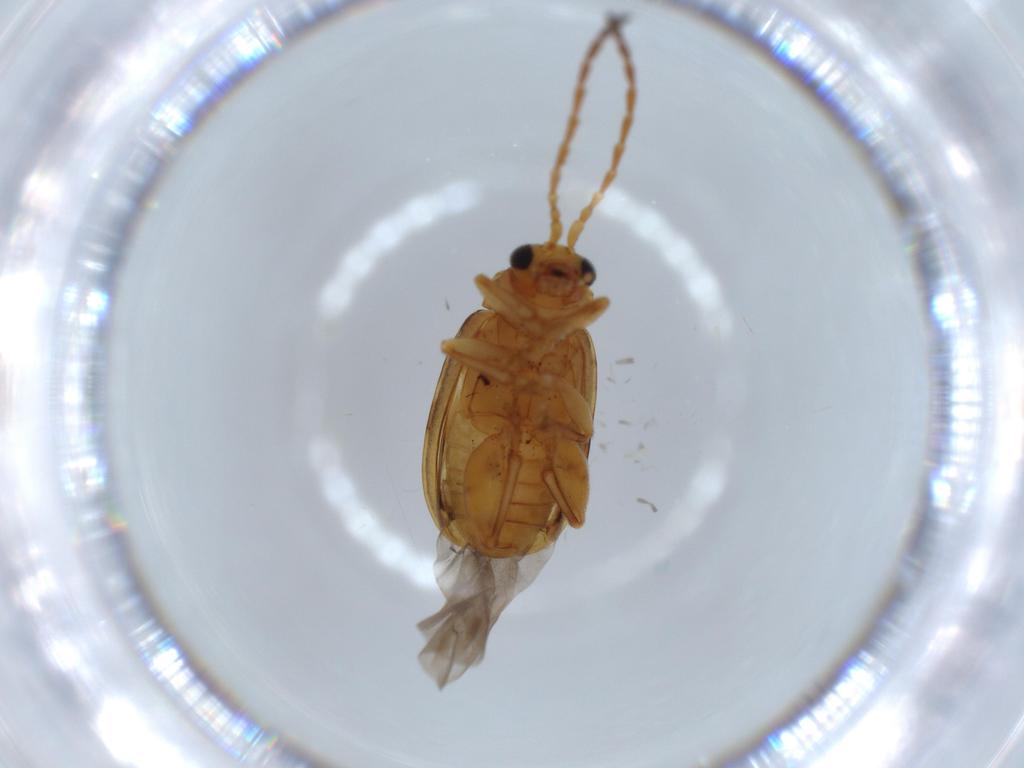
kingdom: Animalia
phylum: Arthropoda
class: Insecta
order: Coleoptera
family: Chrysomelidae
